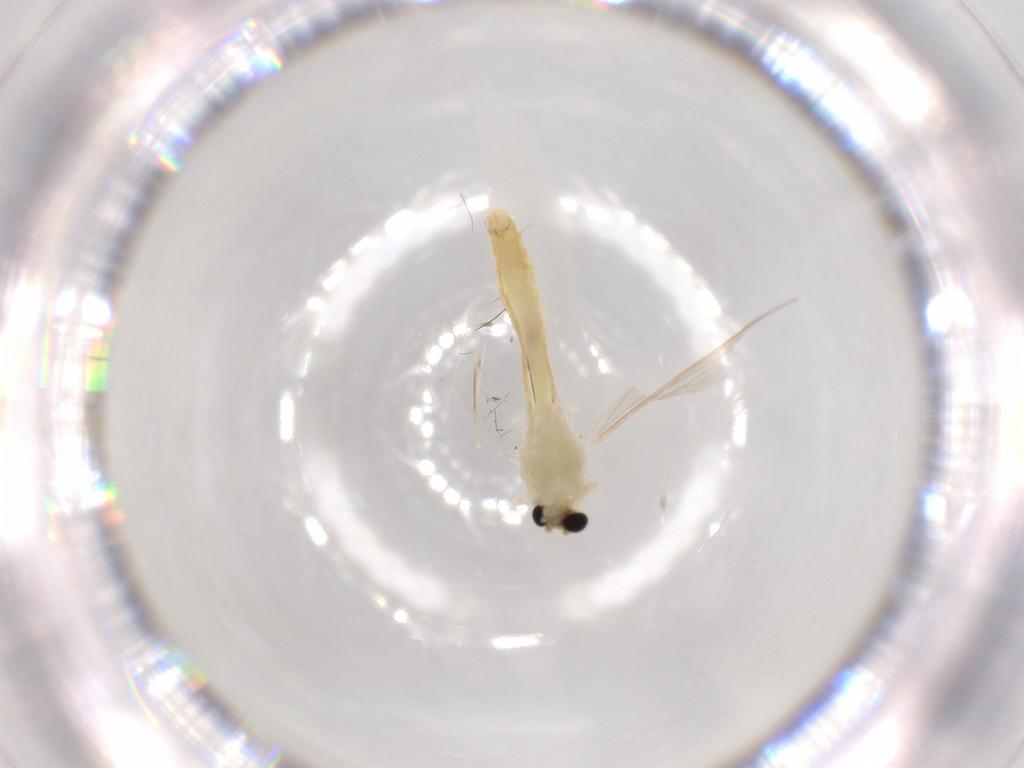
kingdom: Animalia
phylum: Arthropoda
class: Insecta
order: Diptera
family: Chironomidae
